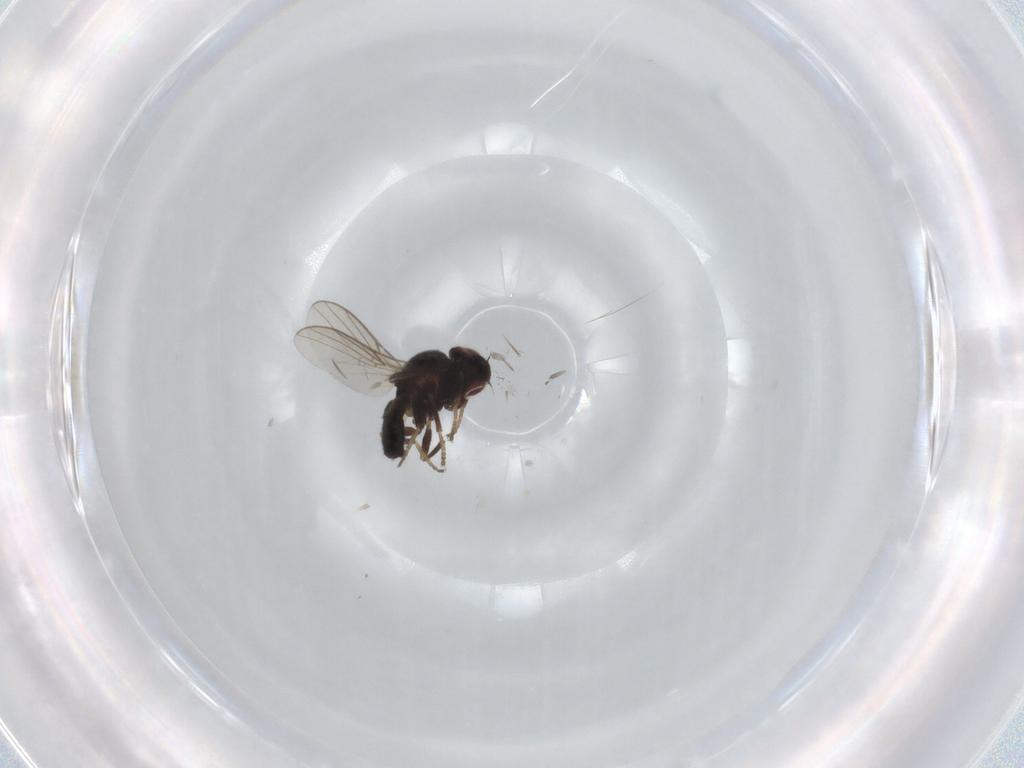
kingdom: Animalia
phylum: Arthropoda
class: Insecta
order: Diptera
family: Chloropidae
